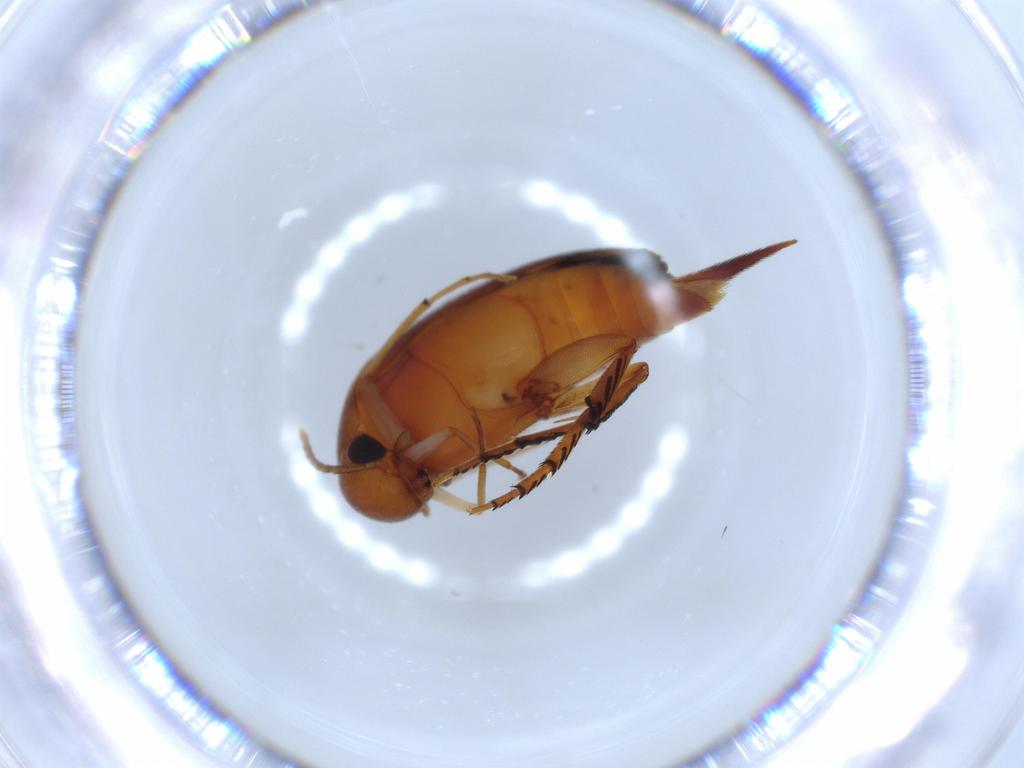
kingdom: Animalia
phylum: Arthropoda
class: Insecta
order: Coleoptera
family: Mordellidae
